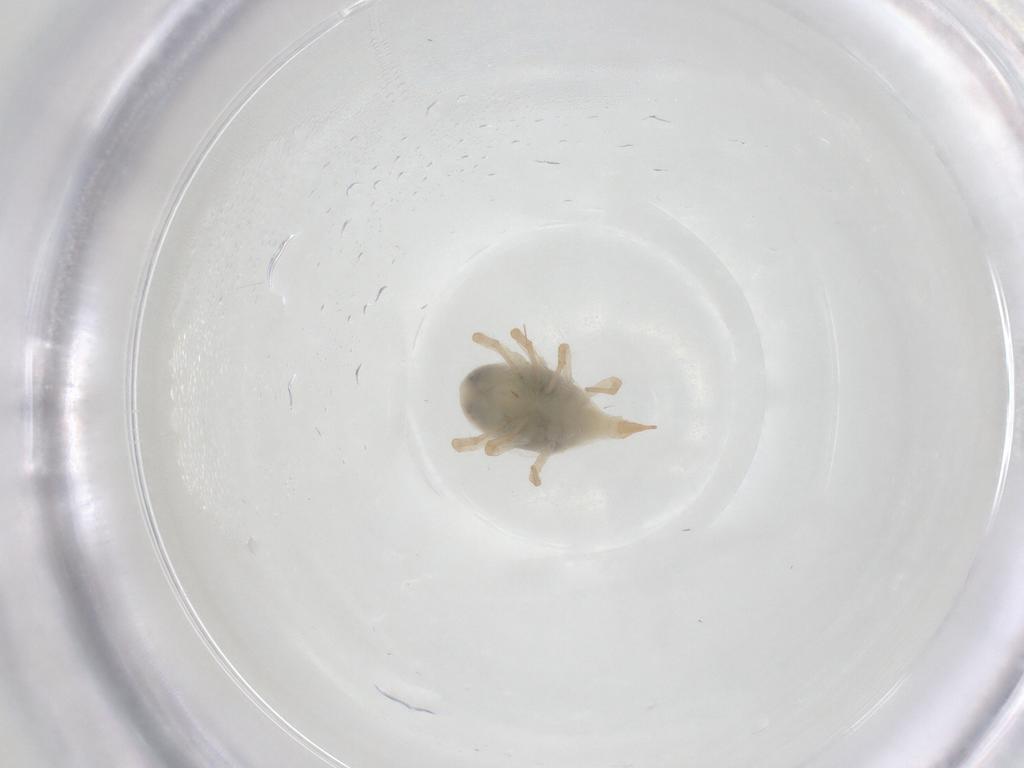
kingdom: Animalia
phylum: Arthropoda
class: Arachnida
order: Trombidiformes
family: Bdellidae
